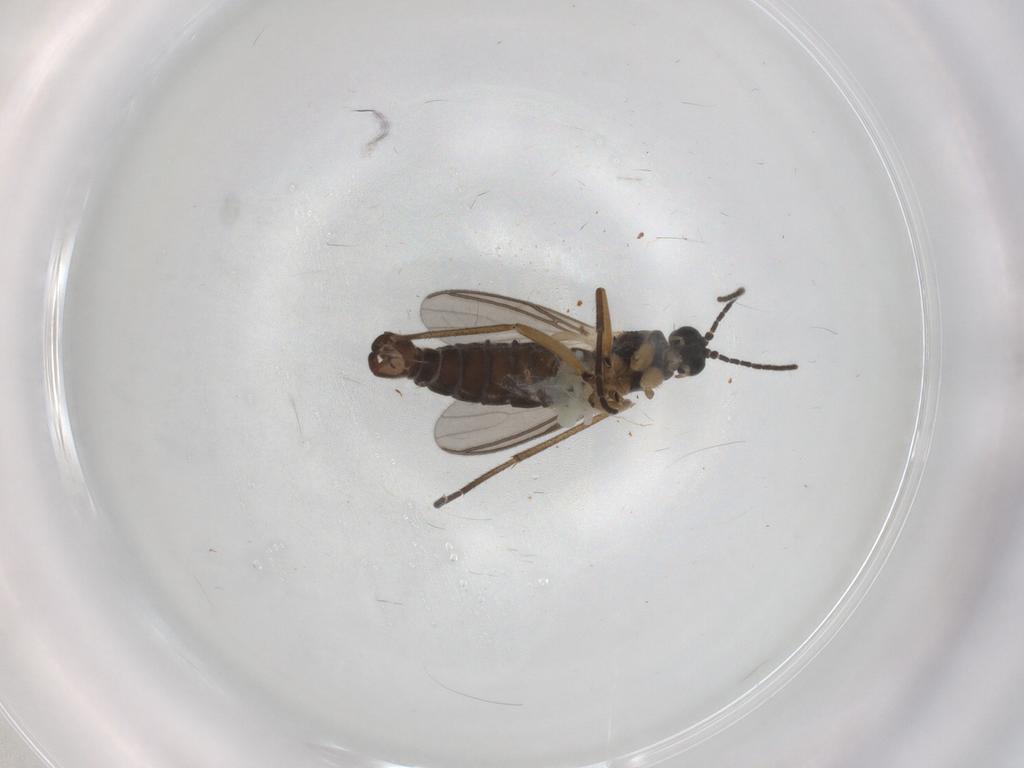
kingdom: Animalia
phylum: Arthropoda
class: Insecta
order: Diptera
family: Sciaridae
